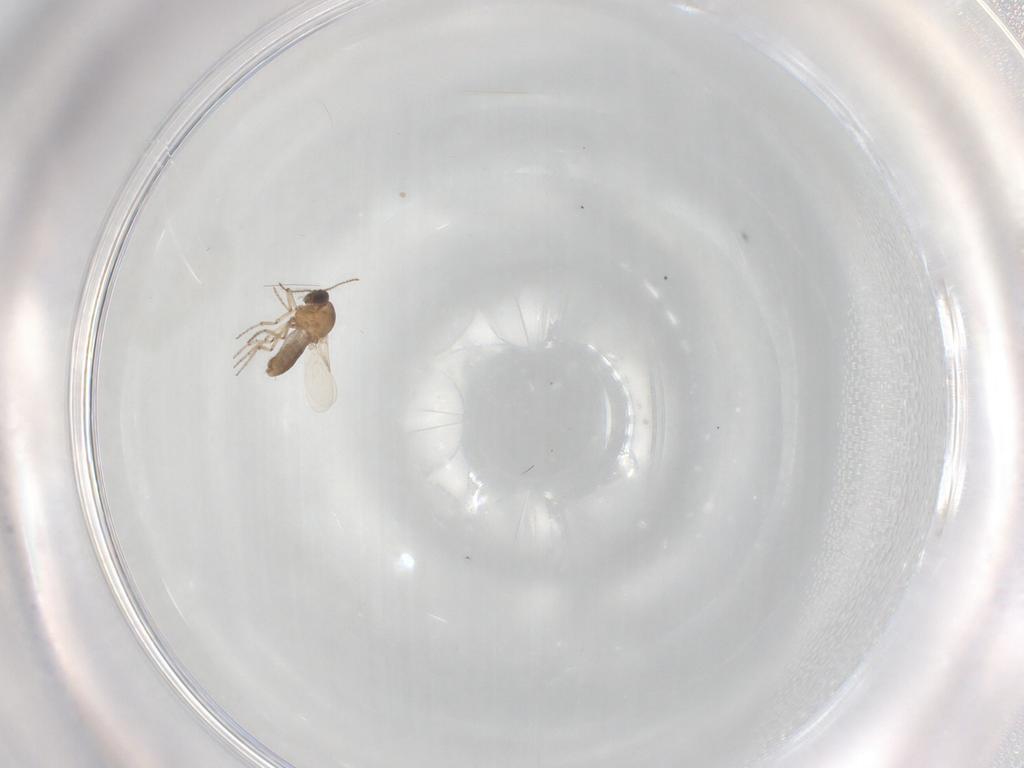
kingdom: Animalia
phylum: Arthropoda
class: Insecta
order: Diptera
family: Ceratopogonidae
